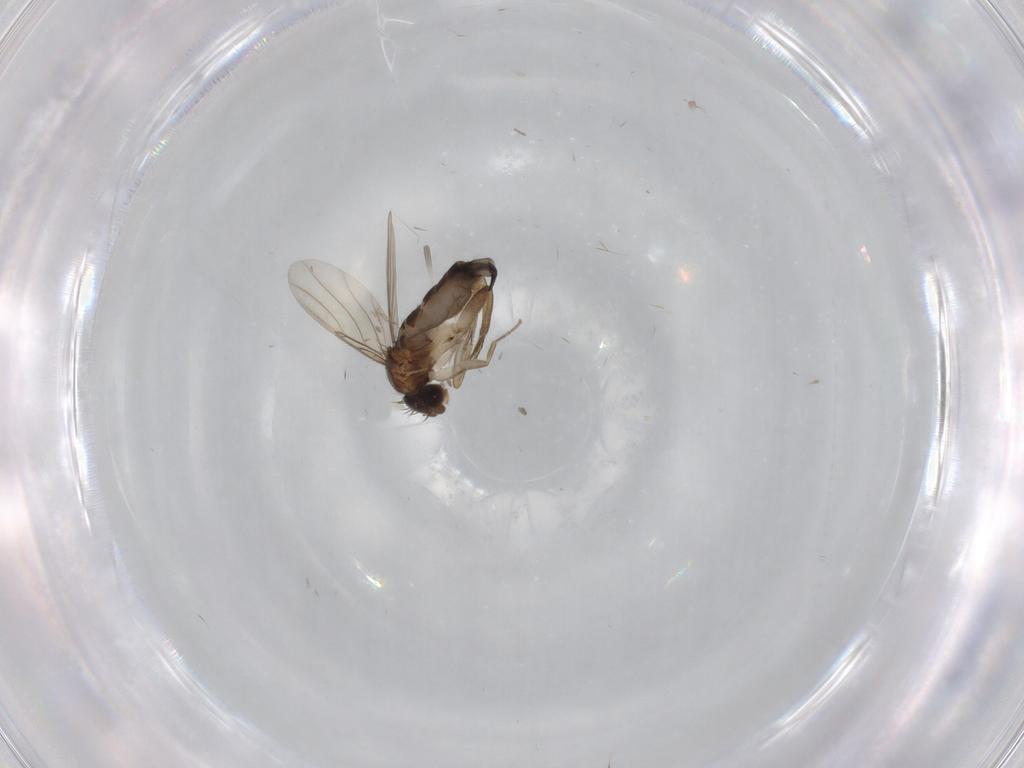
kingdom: Animalia
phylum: Arthropoda
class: Insecta
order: Diptera
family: Phoridae
